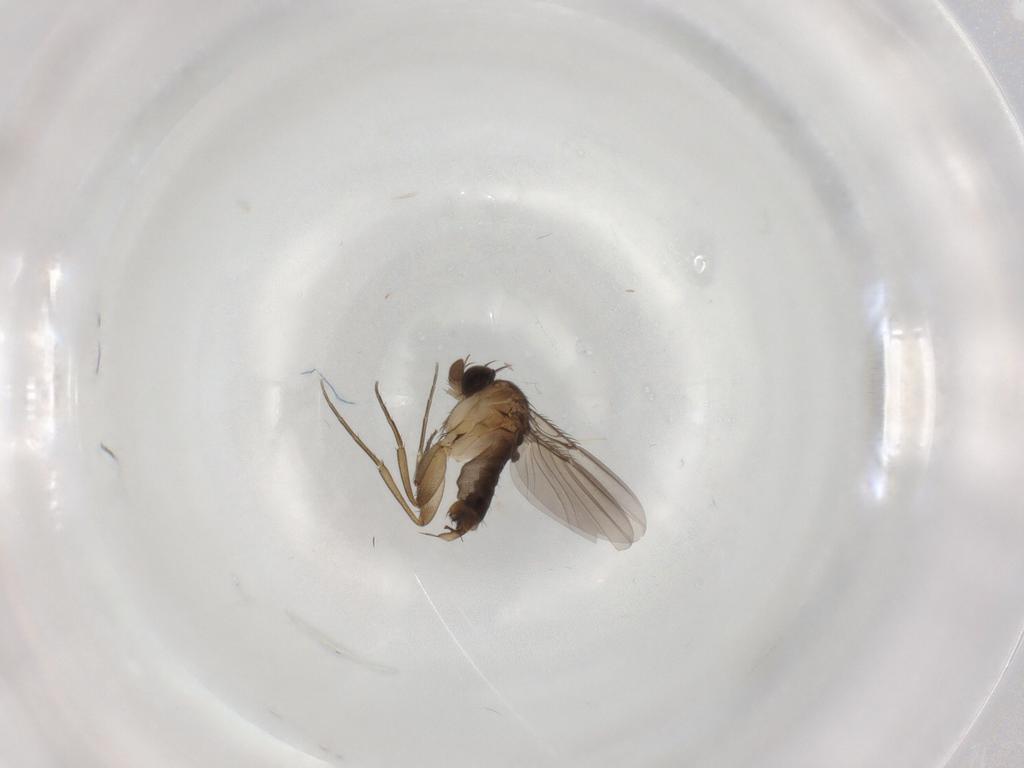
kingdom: Animalia
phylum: Arthropoda
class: Insecta
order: Diptera
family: Phoridae
